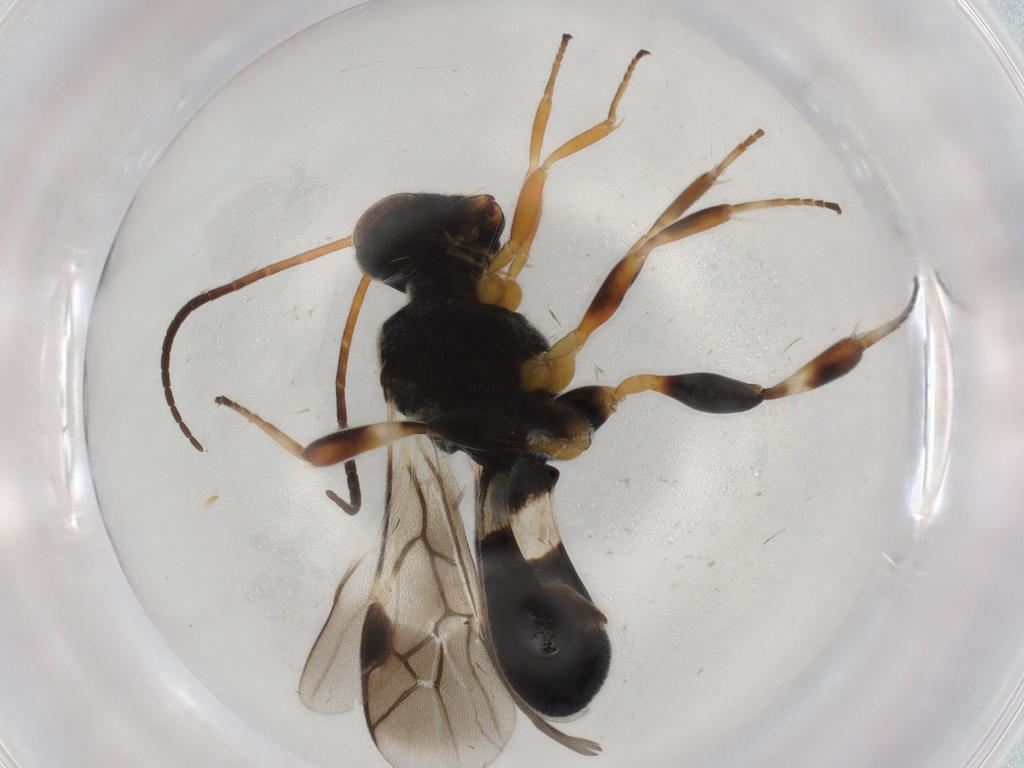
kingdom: Animalia
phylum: Arthropoda
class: Insecta
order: Hymenoptera
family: Braconidae
